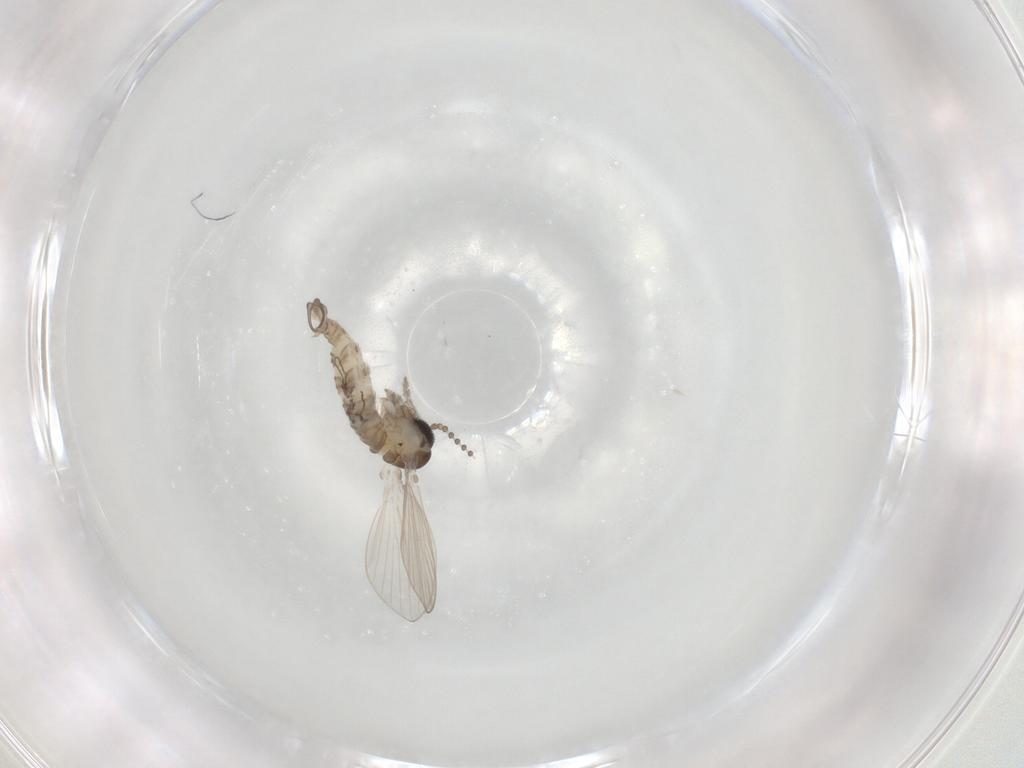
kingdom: Animalia
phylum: Arthropoda
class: Insecta
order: Diptera
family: Psychodidae
